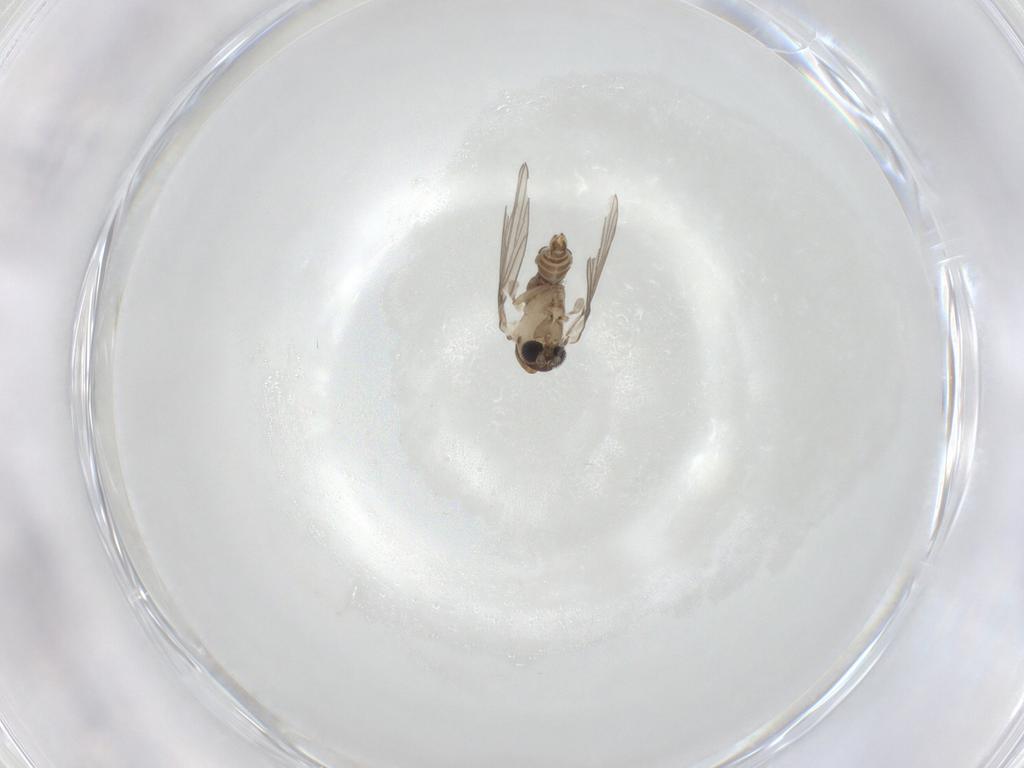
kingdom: Animalia
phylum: Arthropoda
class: Insecta
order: Diptera
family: Psychodidae
